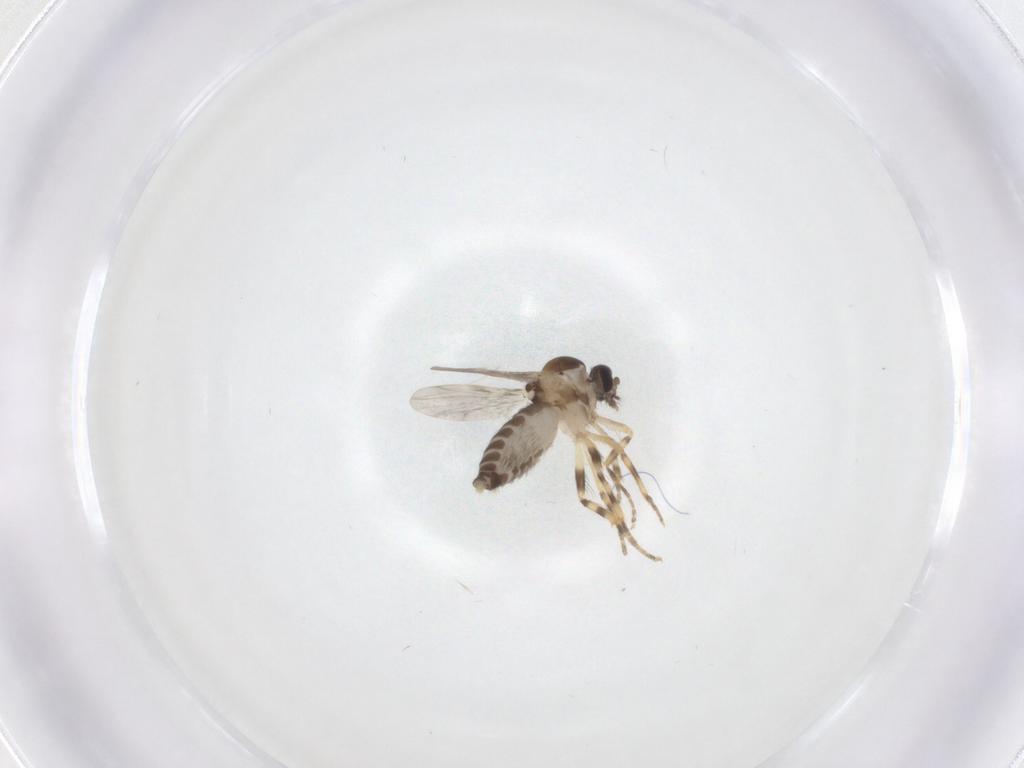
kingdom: Animalia
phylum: Arthropoda
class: Insecta
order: Diptera
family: Ceratopogonidae
